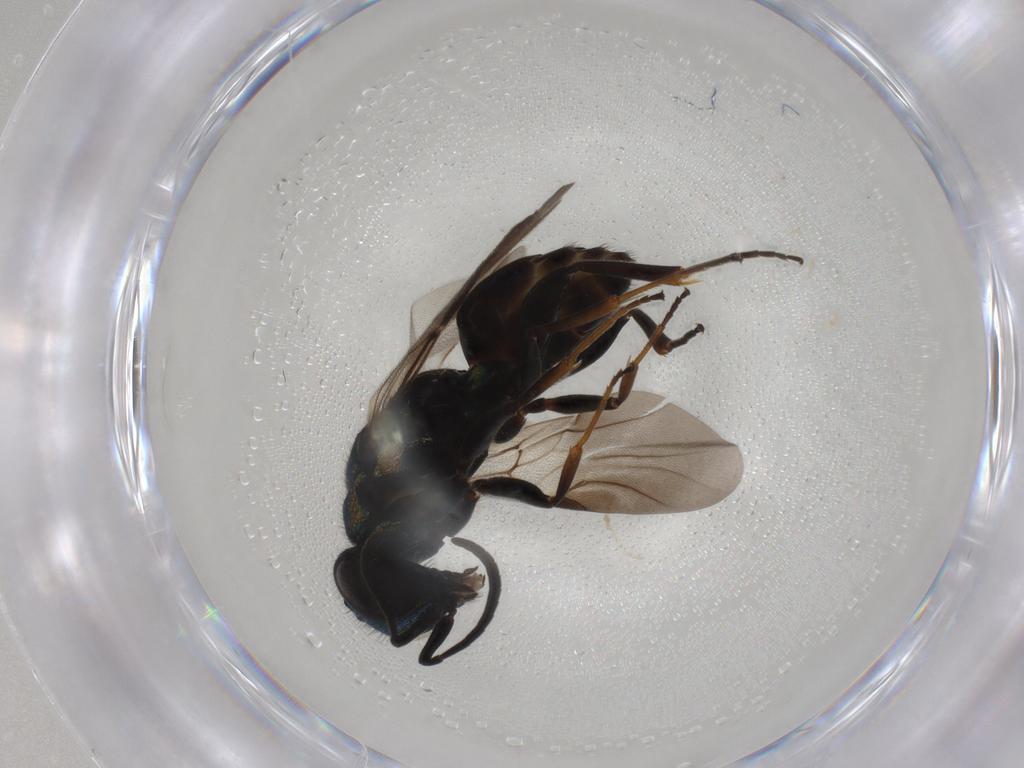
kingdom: Animalia
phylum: Arthropoda
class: Insecta
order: Hymenoptera
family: Chrysididae
